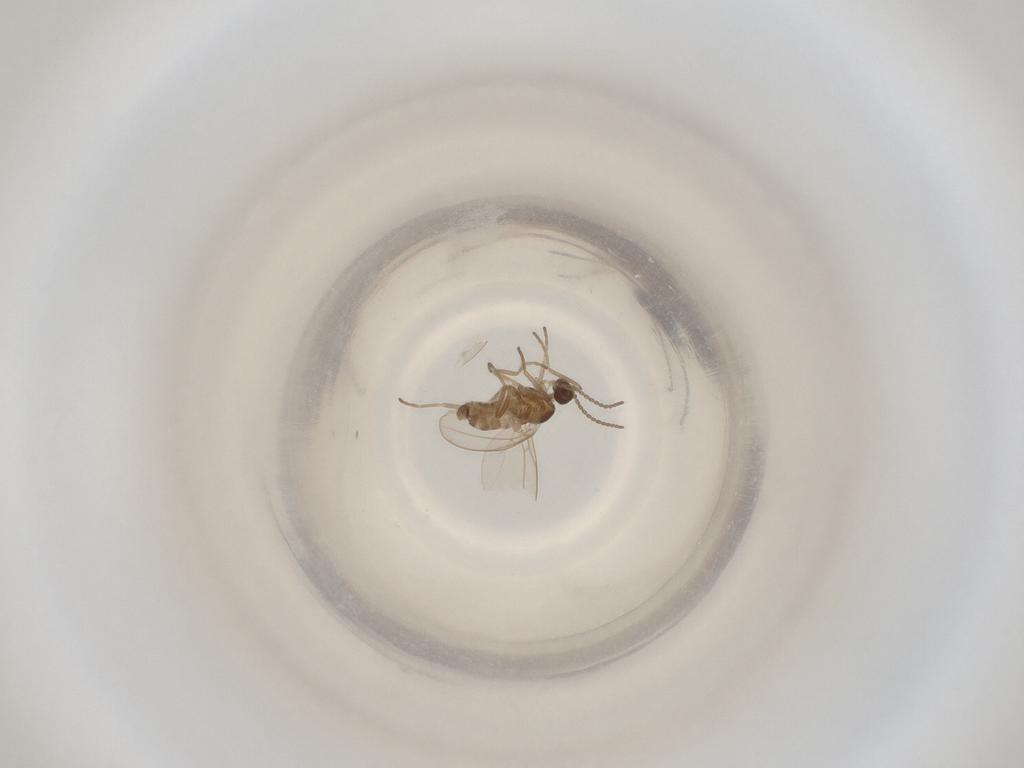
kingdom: Animalia
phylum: Arthropoda
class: Insecta
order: Diptera
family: Cecidomyiidae
